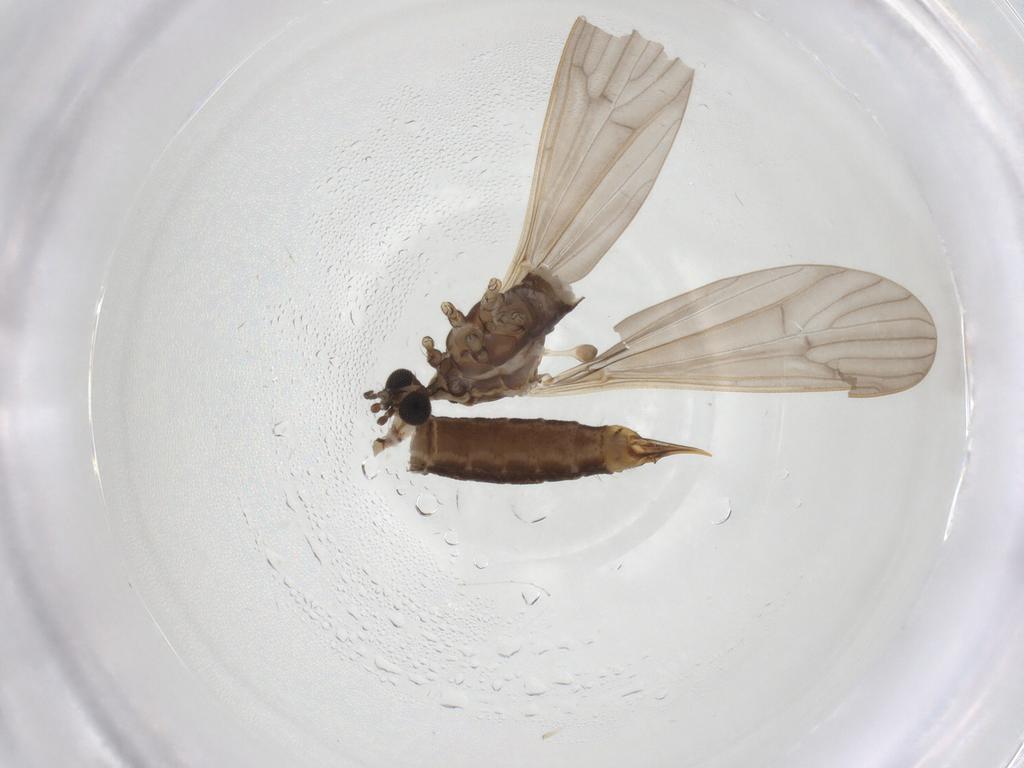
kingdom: Animalia
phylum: Arthropoda
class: Insecta
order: Diptera
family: Limoniidae
